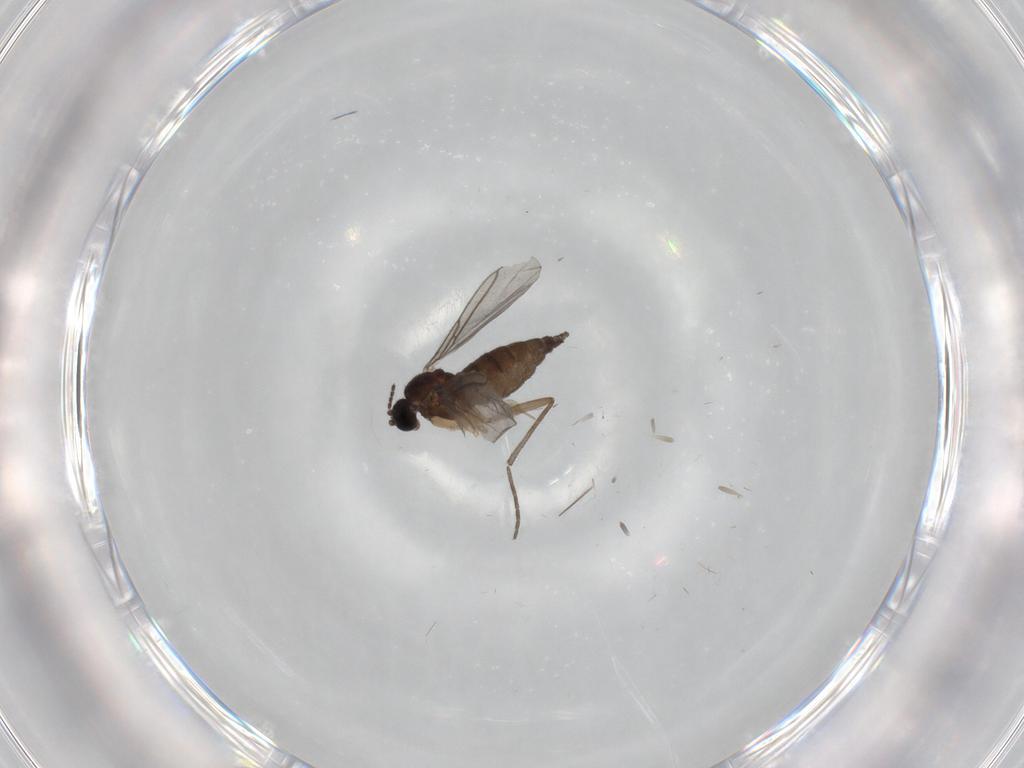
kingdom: Animalia
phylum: Arthropoda
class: Insecta
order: Diptera
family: Sciaridae
